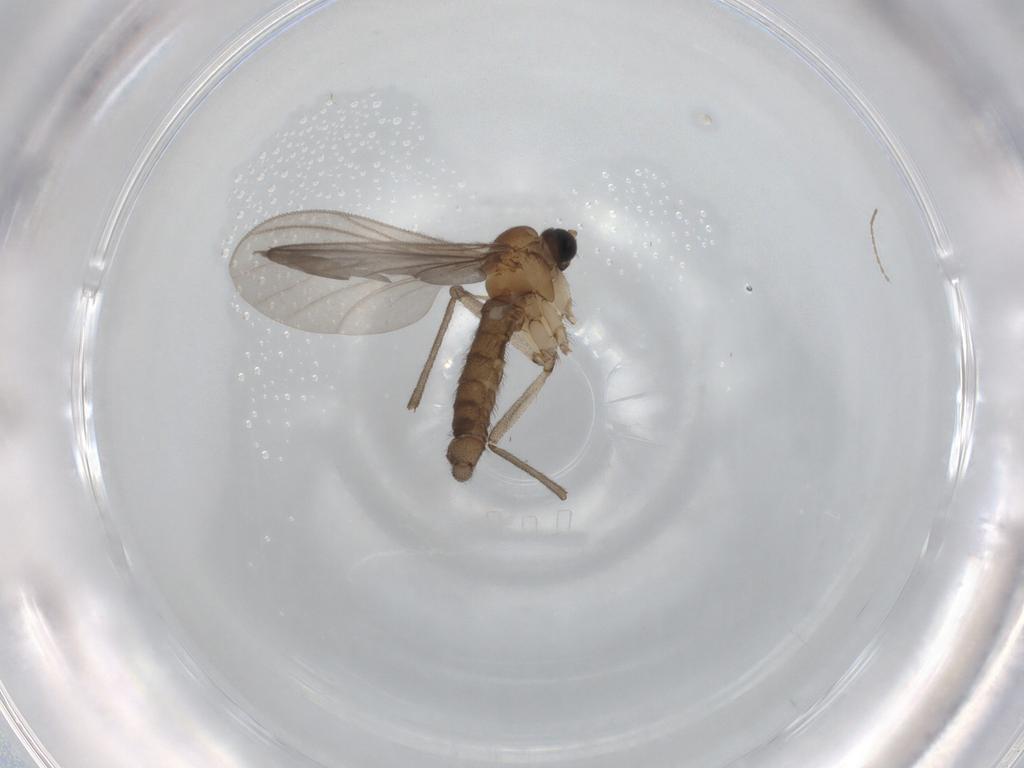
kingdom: Animalia
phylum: Arthropoda
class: Insecta
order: Diptera
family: Sciaridae
